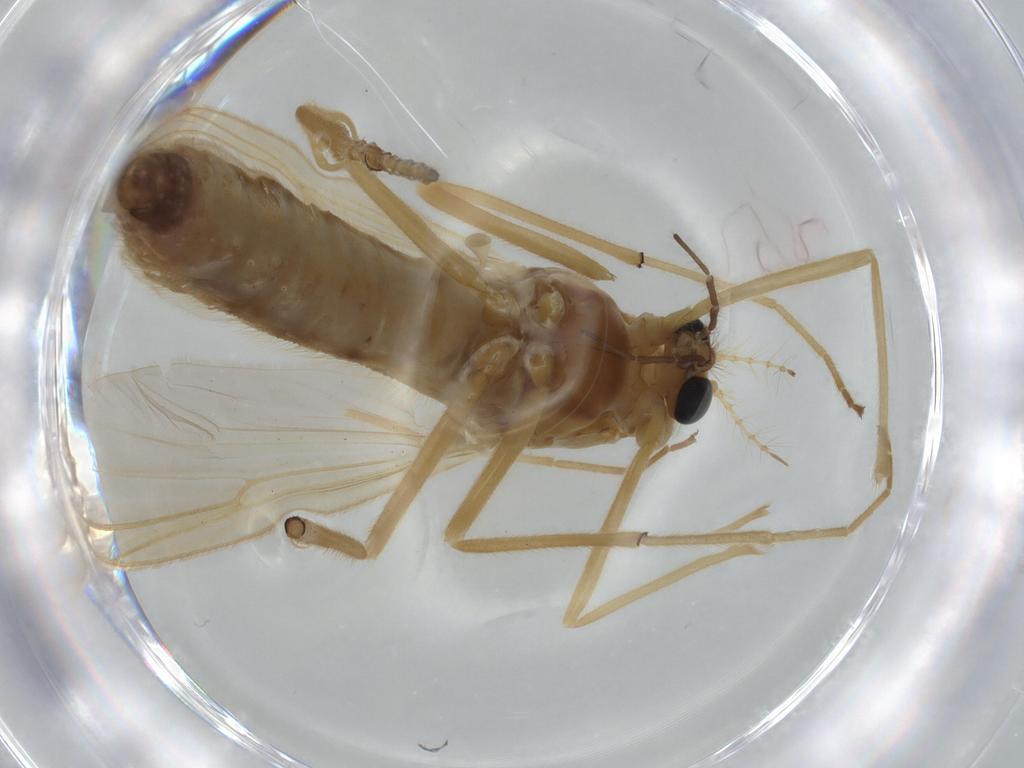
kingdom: Animalia
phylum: Arthropoda
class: Insecta
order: Diptera
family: Chironomidae
